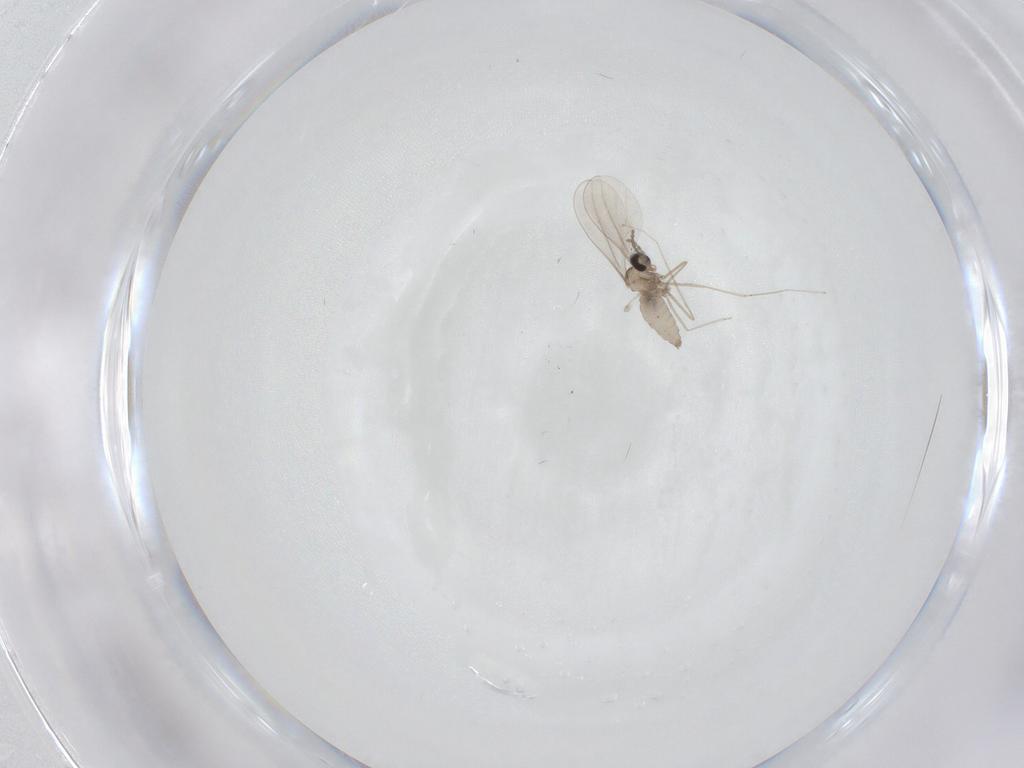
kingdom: Animalia
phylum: Arthropoda
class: Insecta
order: Diptera
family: Cecidomyiidae
